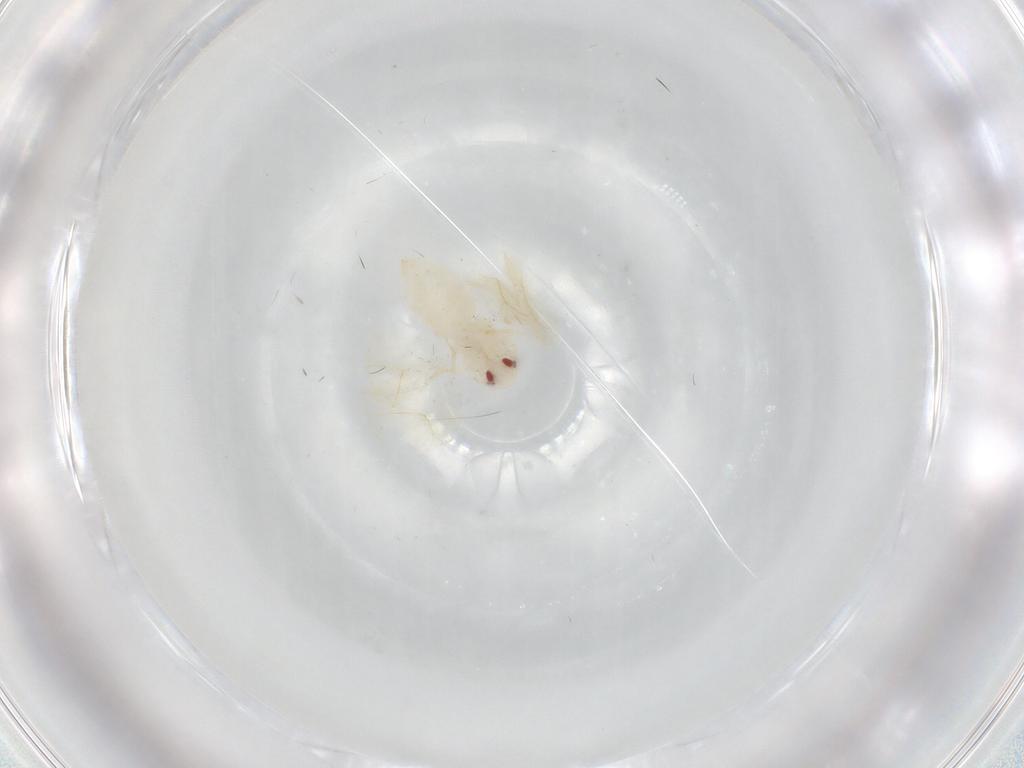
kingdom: Animalia
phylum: Arthropoda
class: Insecta
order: Hemiptera
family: Aleyrodidae
